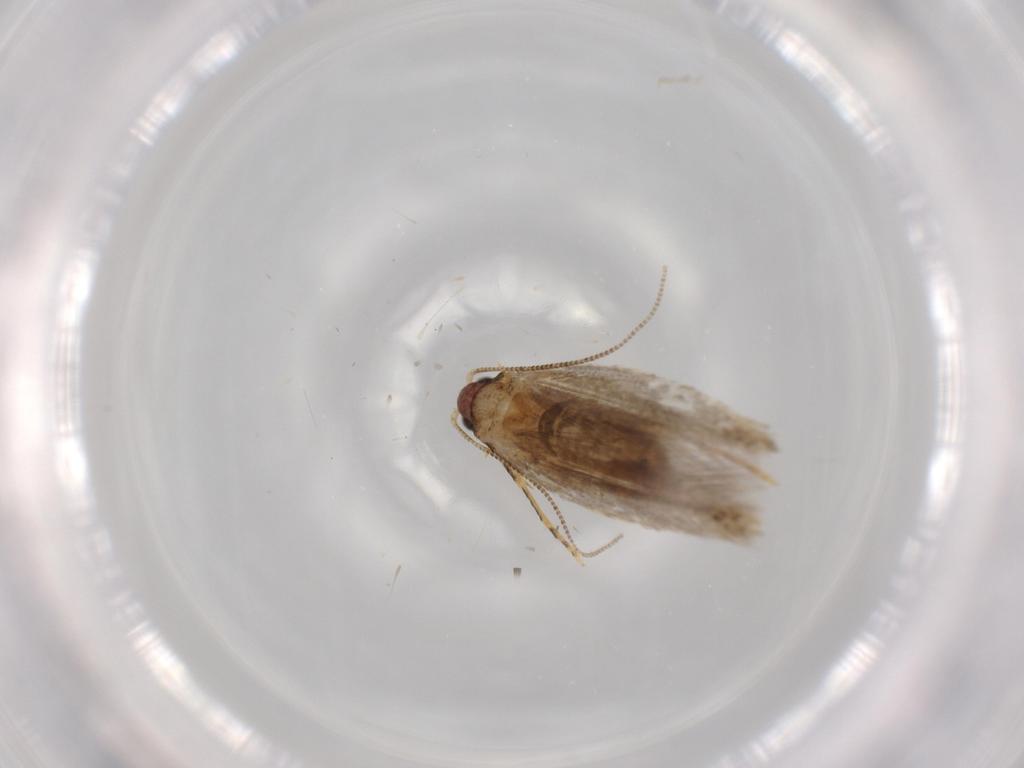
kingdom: Animalia
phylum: Arthropoda
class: Insecta
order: Lepidoptera
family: Tineidae
